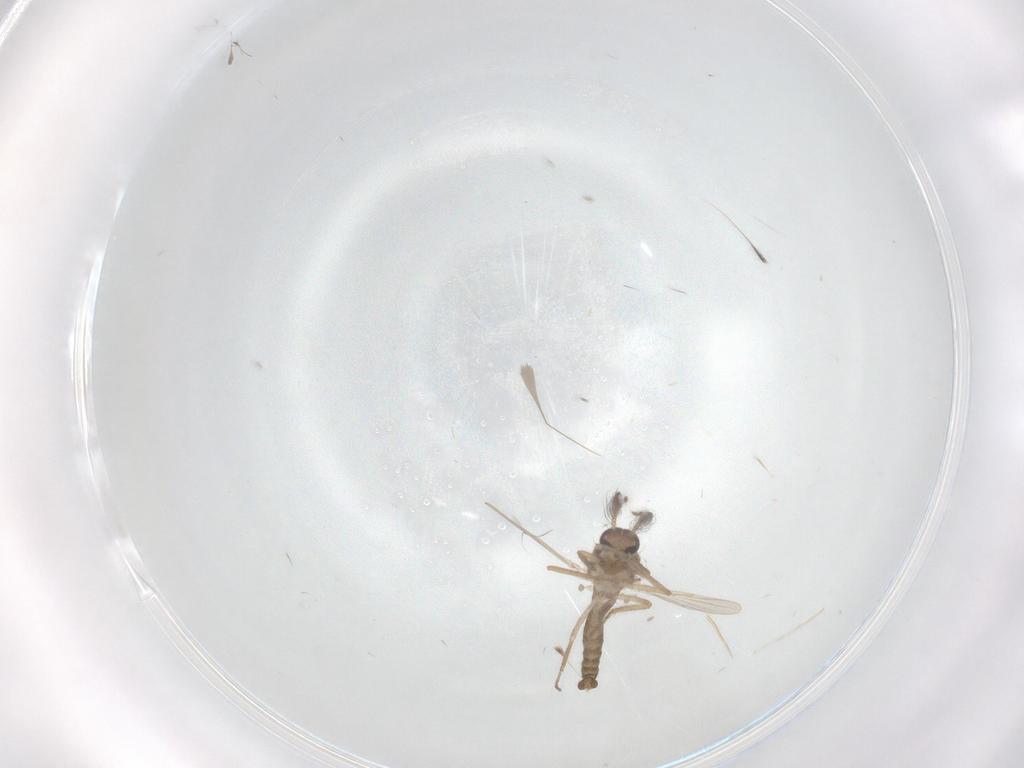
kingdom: Animalia
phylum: Arthropoda
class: Insecta
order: Diptera
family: Ceratopogonidae
